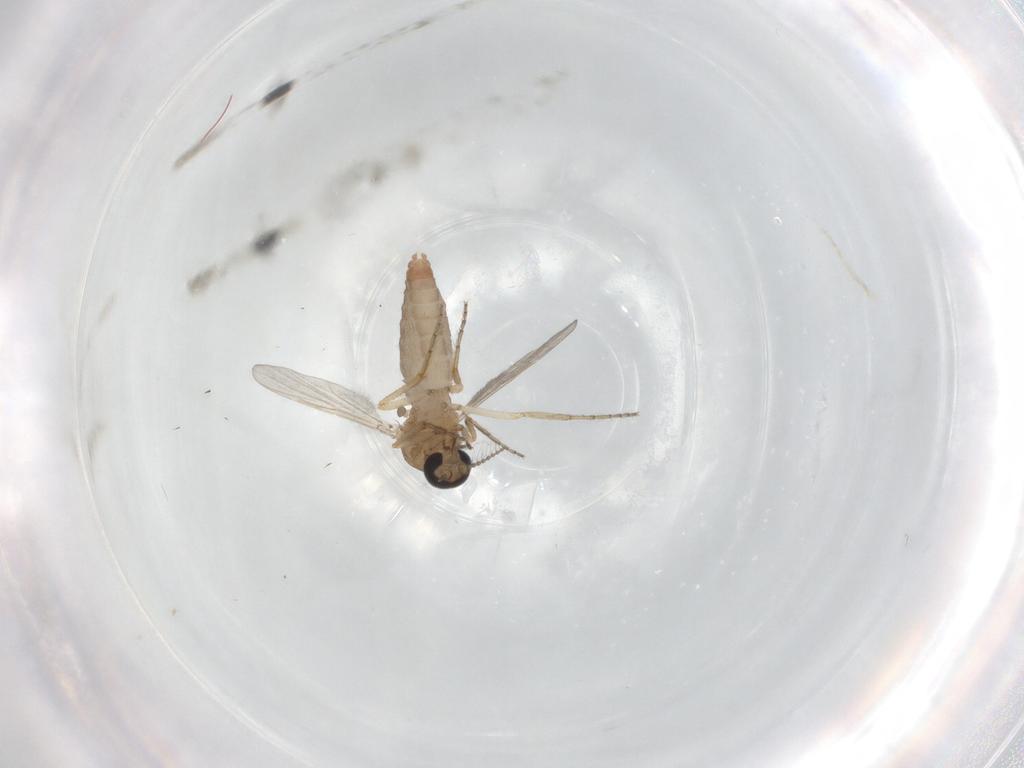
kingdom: Animalia
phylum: Arthropoda
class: Insecta
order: Diptera
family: Ceratopogonidae
